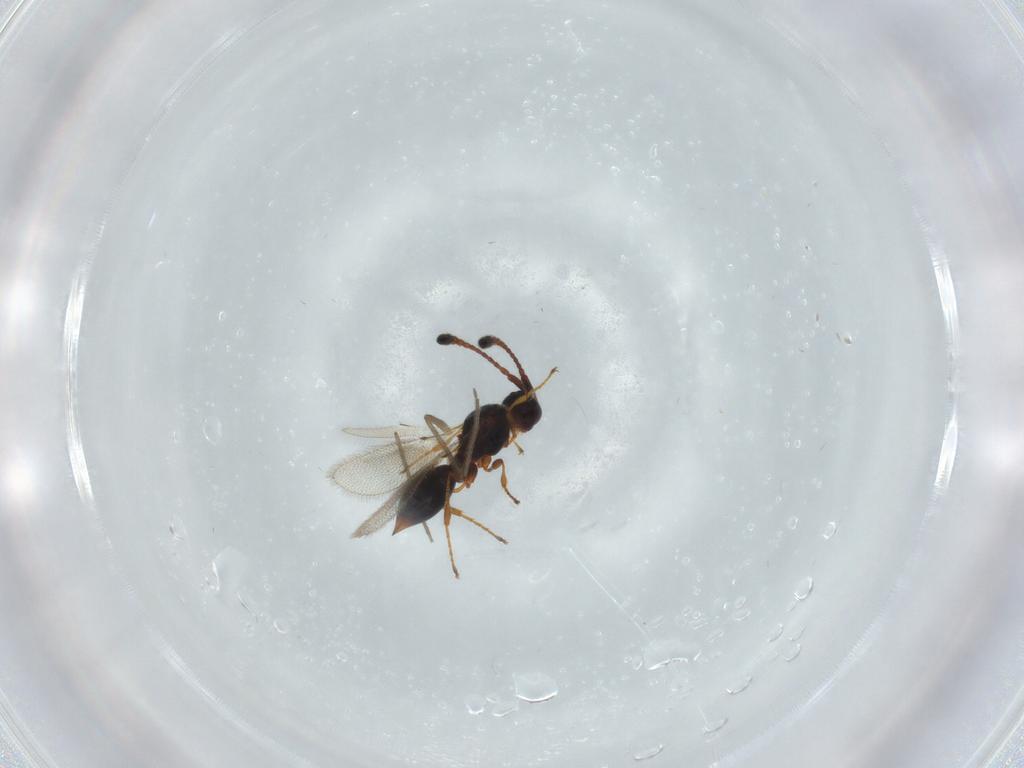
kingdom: Animalia
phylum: Arthropoda
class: Insecta
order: Hymenoptera
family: Diapriidae
